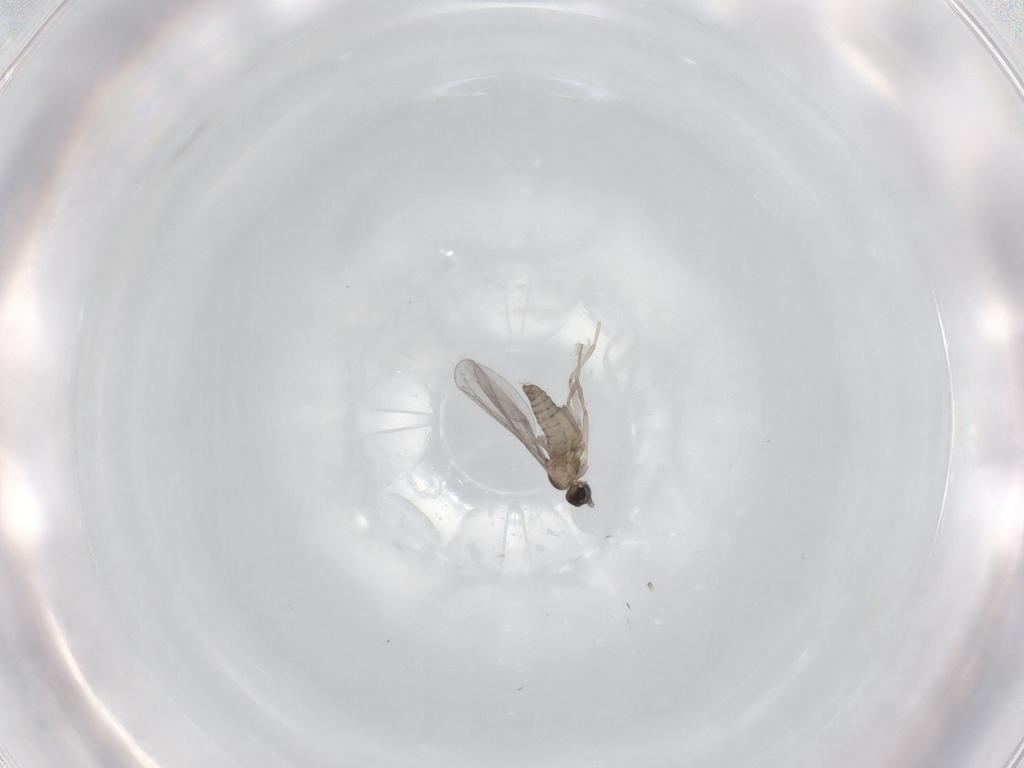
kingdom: Animalia
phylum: Arthropoda
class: Insecta
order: Diptera
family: Cecidomyiidae
